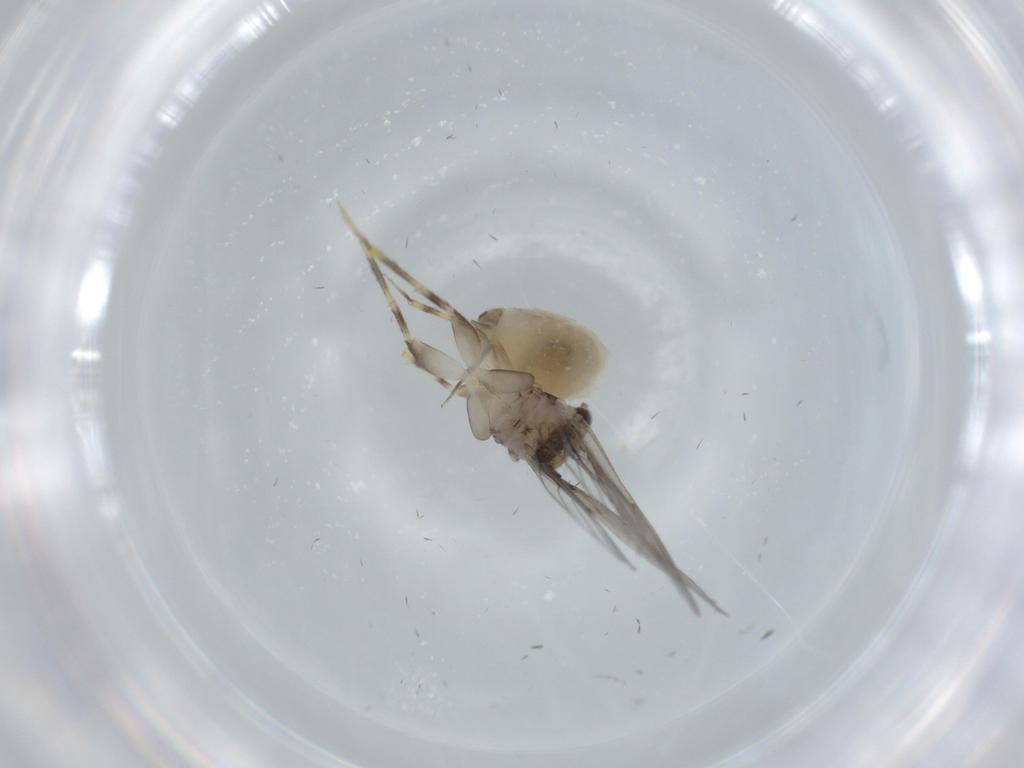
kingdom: Animalia
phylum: Arthropoda
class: Insecta
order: Psocodea
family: Lepidopsocidae
